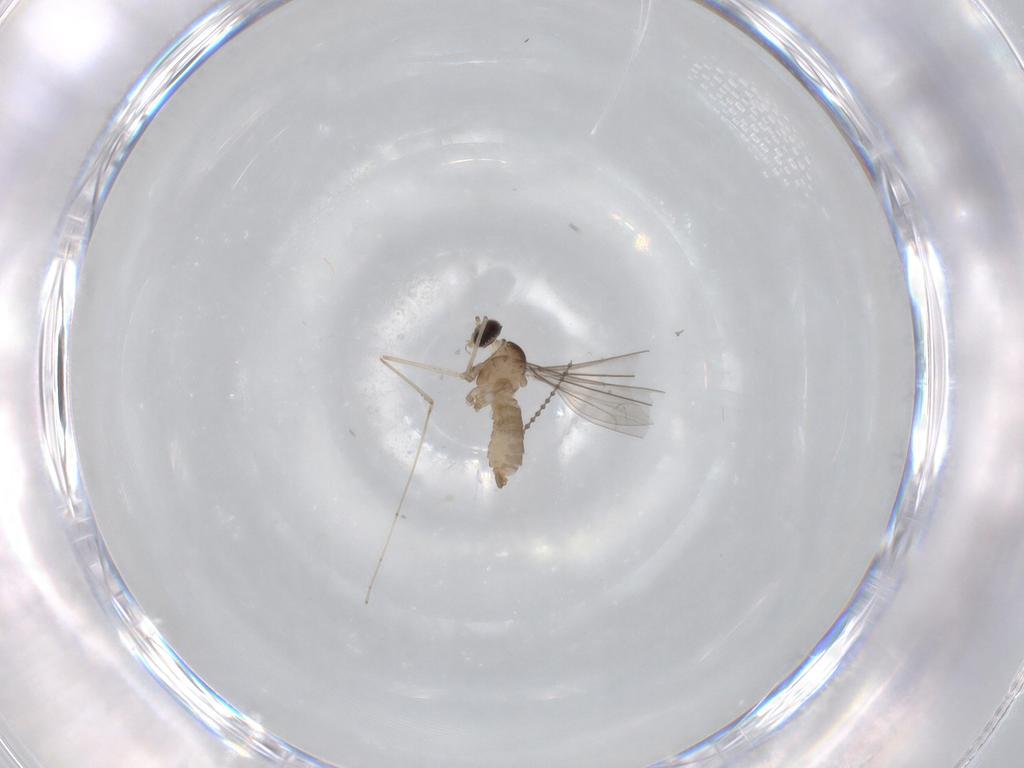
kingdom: Animalia
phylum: Arthropoda
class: Insecta
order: Diptera
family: Cecidomyiidae
